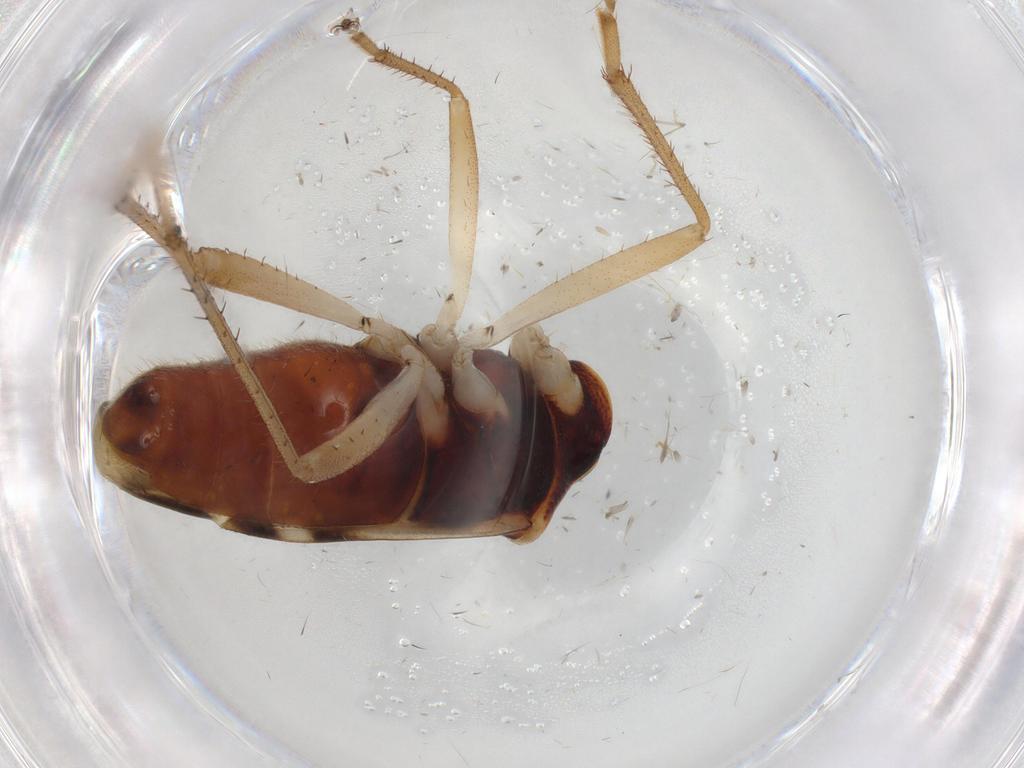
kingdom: Animalia
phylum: Arthropoda
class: Insecta
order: Hemiptera
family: Rhyparochromidae
